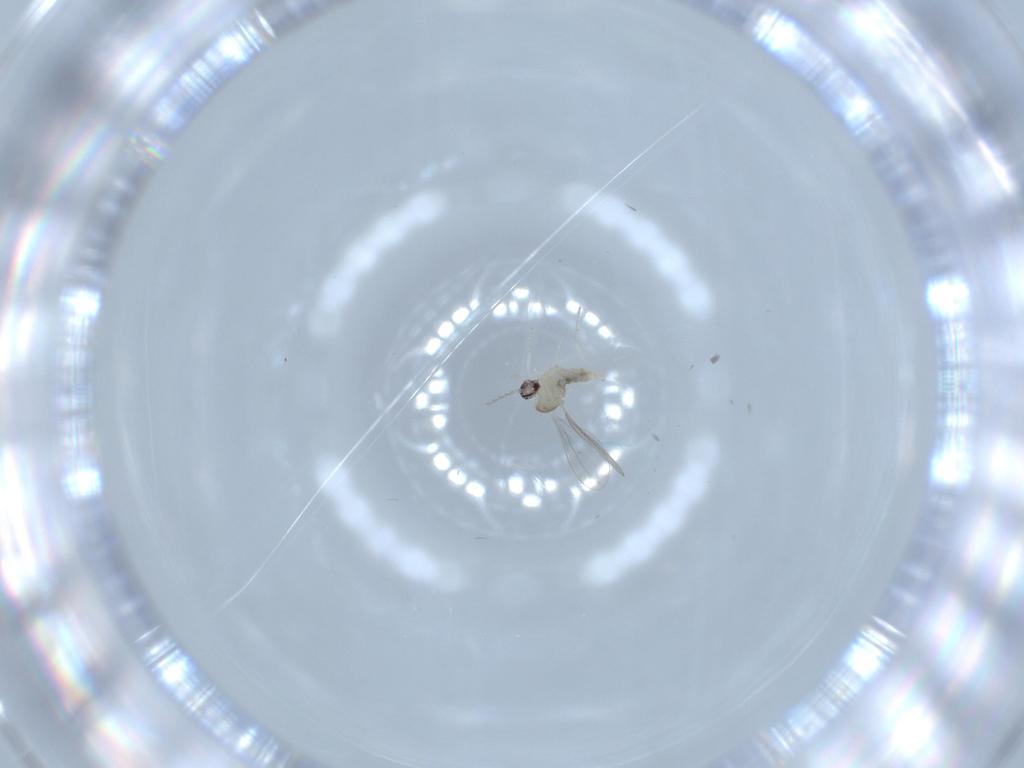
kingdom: Animalia
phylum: Arthropoda
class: Insecta
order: Diptera
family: Cecidomyiidae
